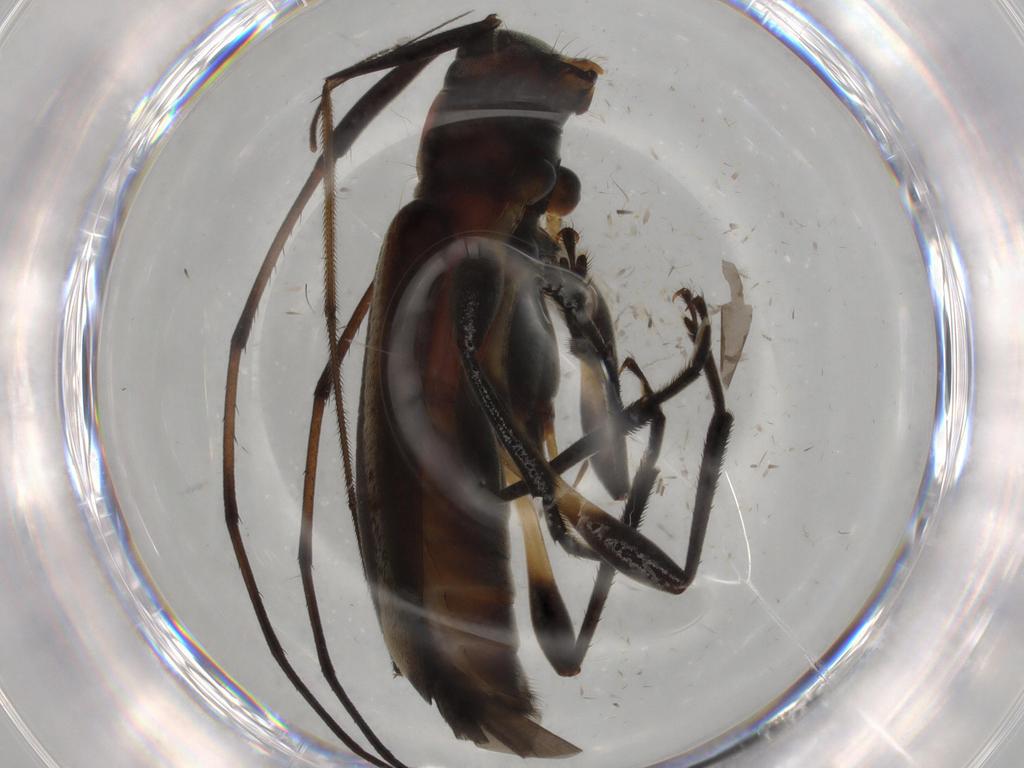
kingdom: Animalia
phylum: Arthropoda
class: Insecta
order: Coleoptera
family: Cerambycidae
